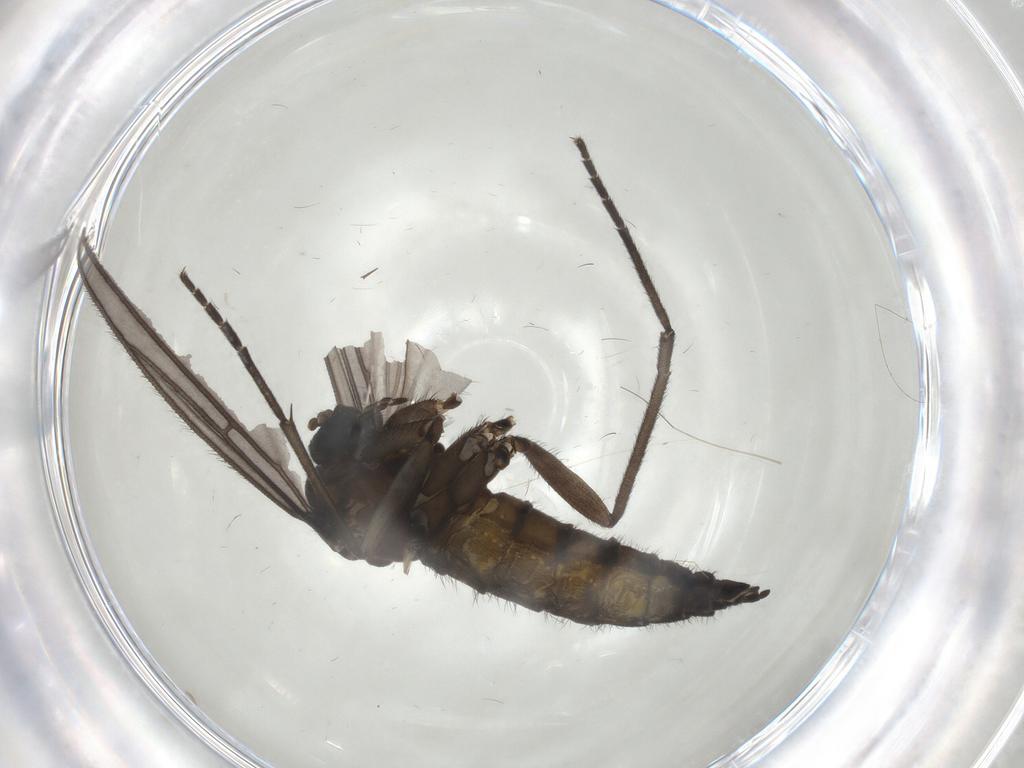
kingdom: Animalia
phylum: Arthropoda
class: Insecta
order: Diptera
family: Sciaridae
